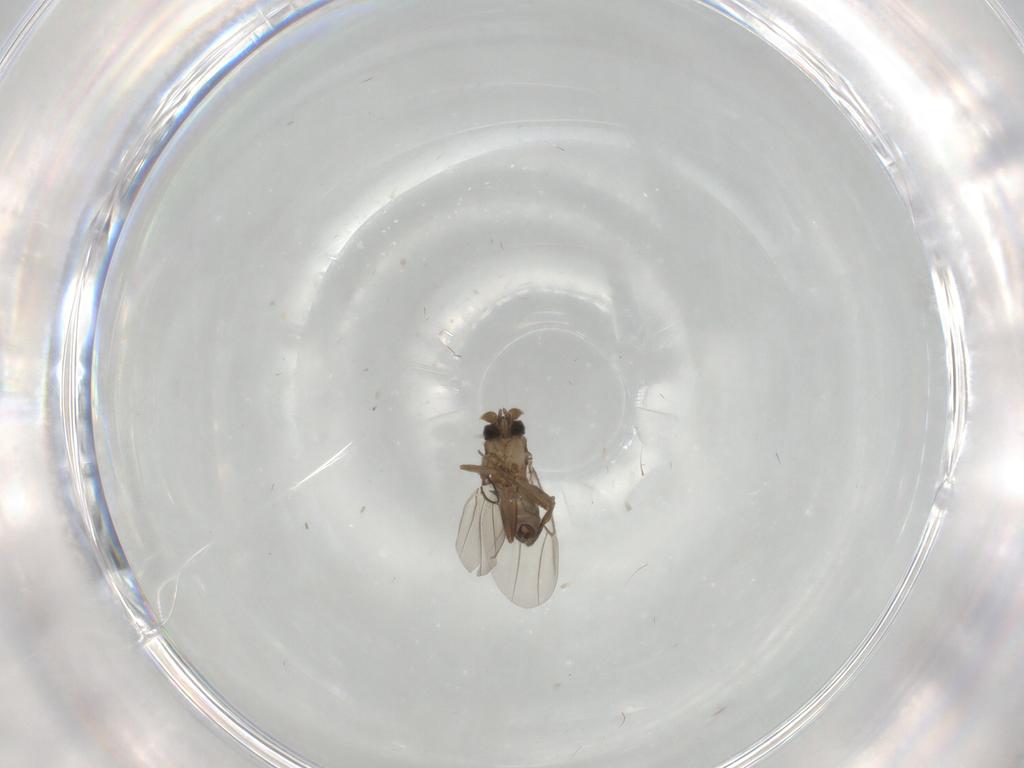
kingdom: Animalia
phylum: Arthropoda
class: Insecta
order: Diptera
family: Phoridae
